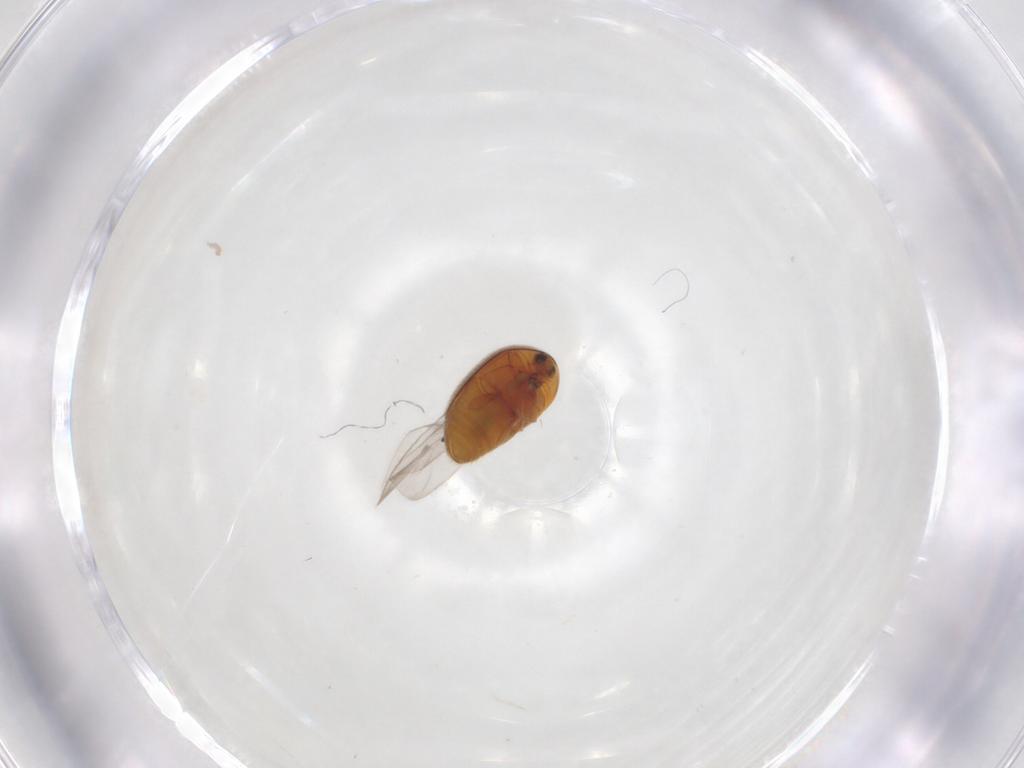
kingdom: Animalia
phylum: Arthropoda
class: Insecta
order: Coleoptera
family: Corylophidae
